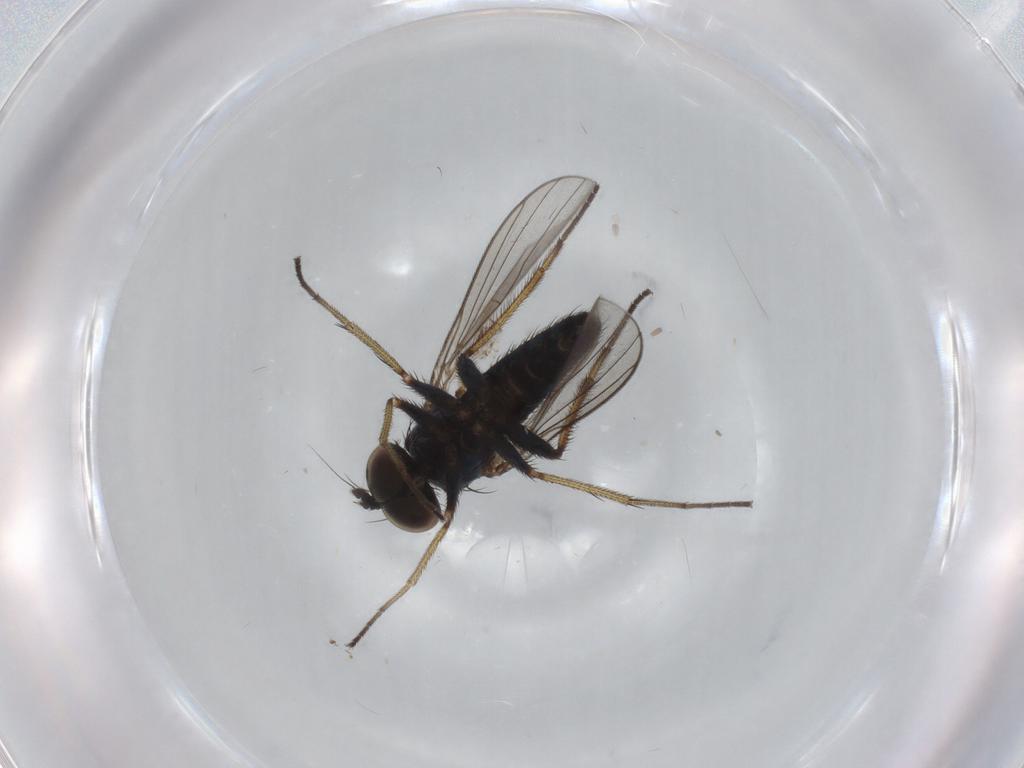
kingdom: Animalia
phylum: Arthropoda
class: Insecta
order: Diptera
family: Dolichopodidae
